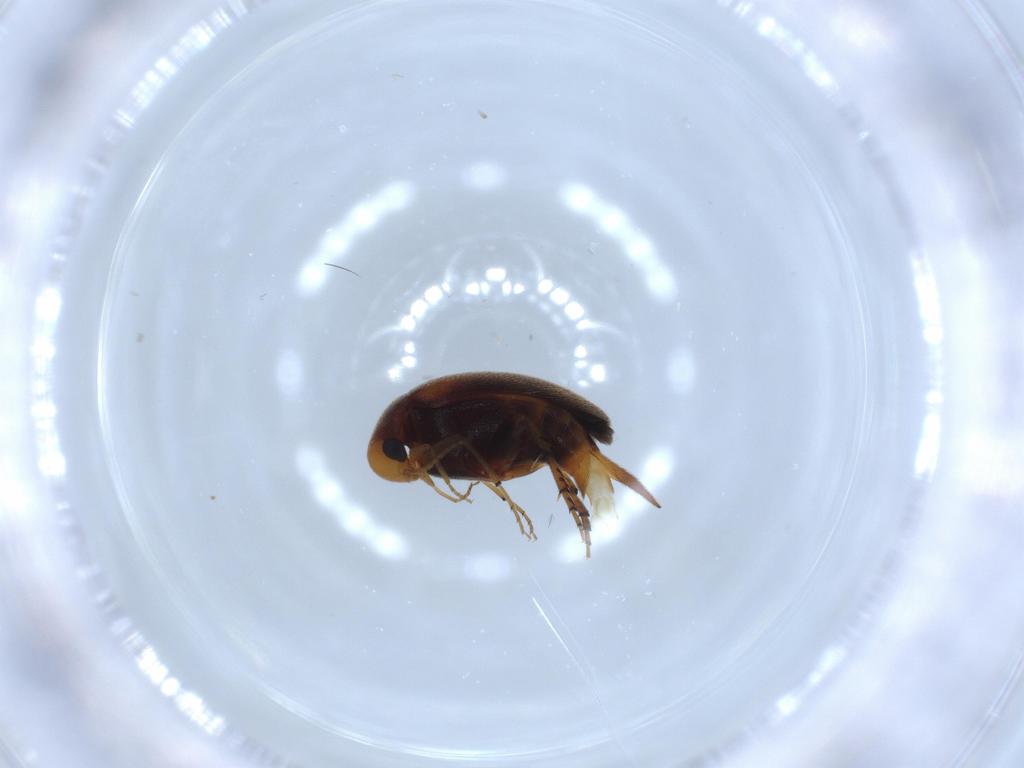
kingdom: Animalia
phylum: Arthropoda
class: Insecta
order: Coleoptera
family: Mordellidae
